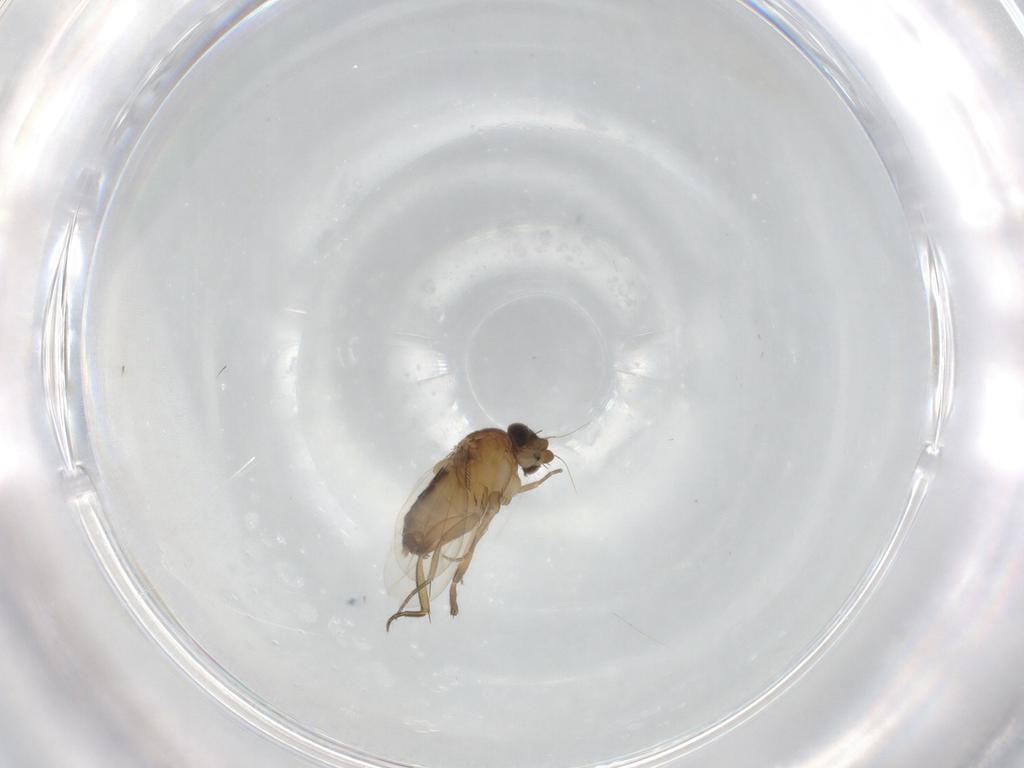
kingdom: Animalia
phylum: Arthropoda
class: Insecta
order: Diptera
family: Phoridae
